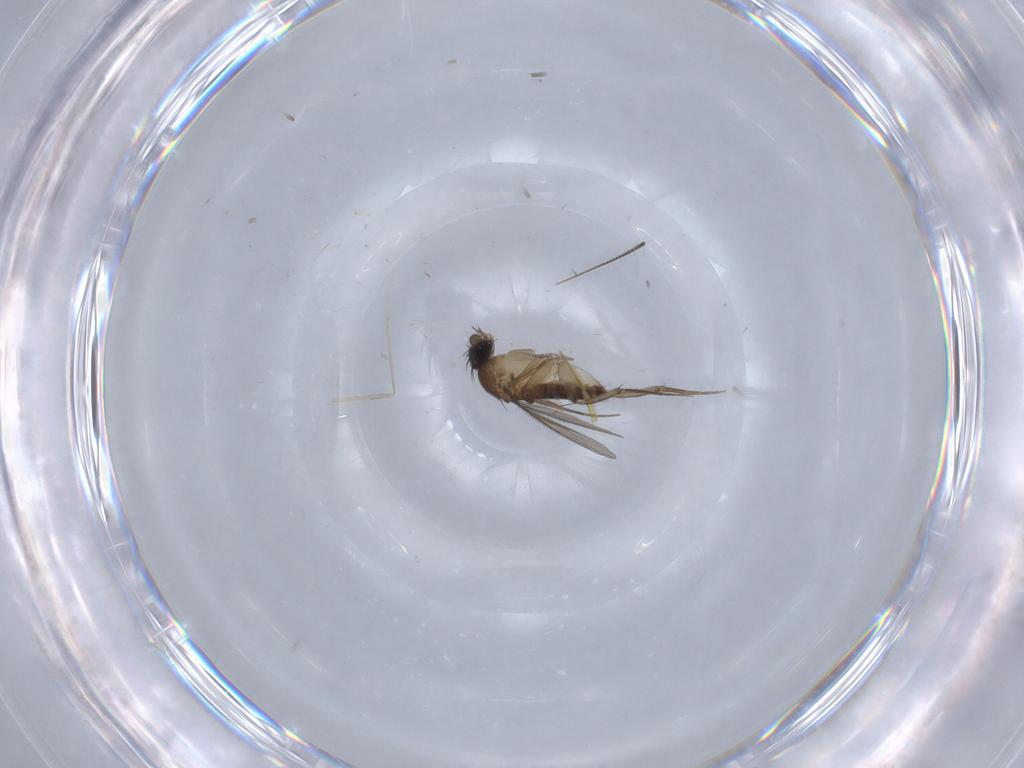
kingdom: Animalia
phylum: Arthropoda
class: Insecta
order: Diptera
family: Phoridae
